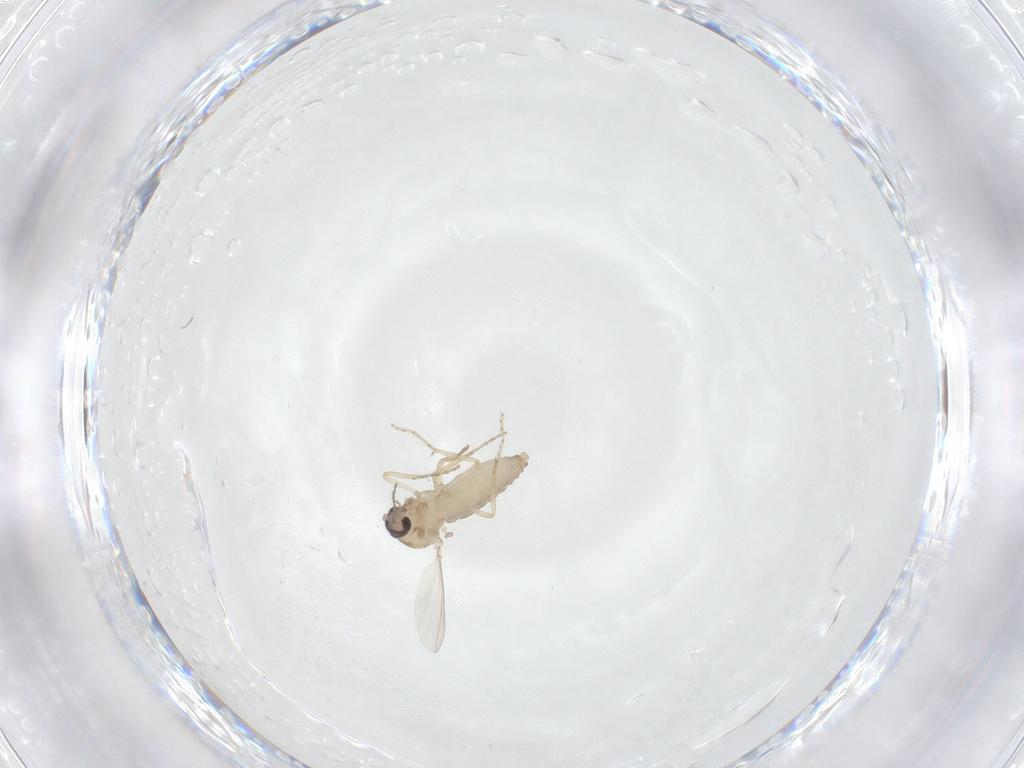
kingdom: Animalia
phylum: Arthropoda
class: Insecta
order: Diptera
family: Ceratopogonidae
